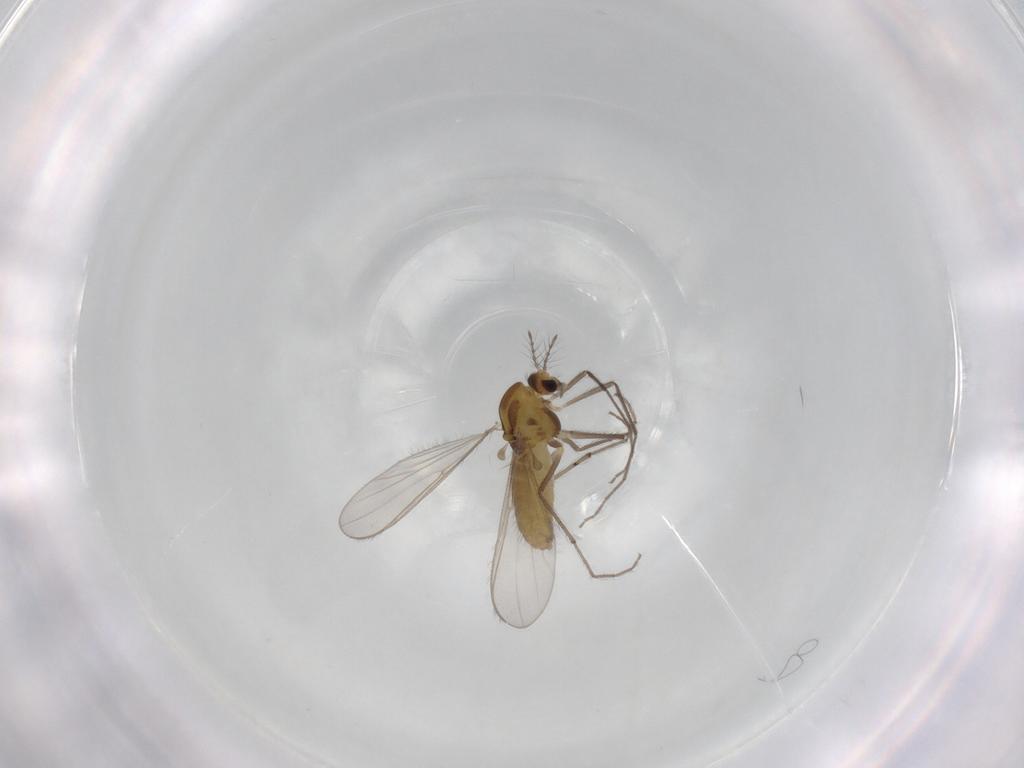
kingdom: Animalia
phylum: Arthropoda
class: Insecta
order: Diptera
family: Chironomidae
